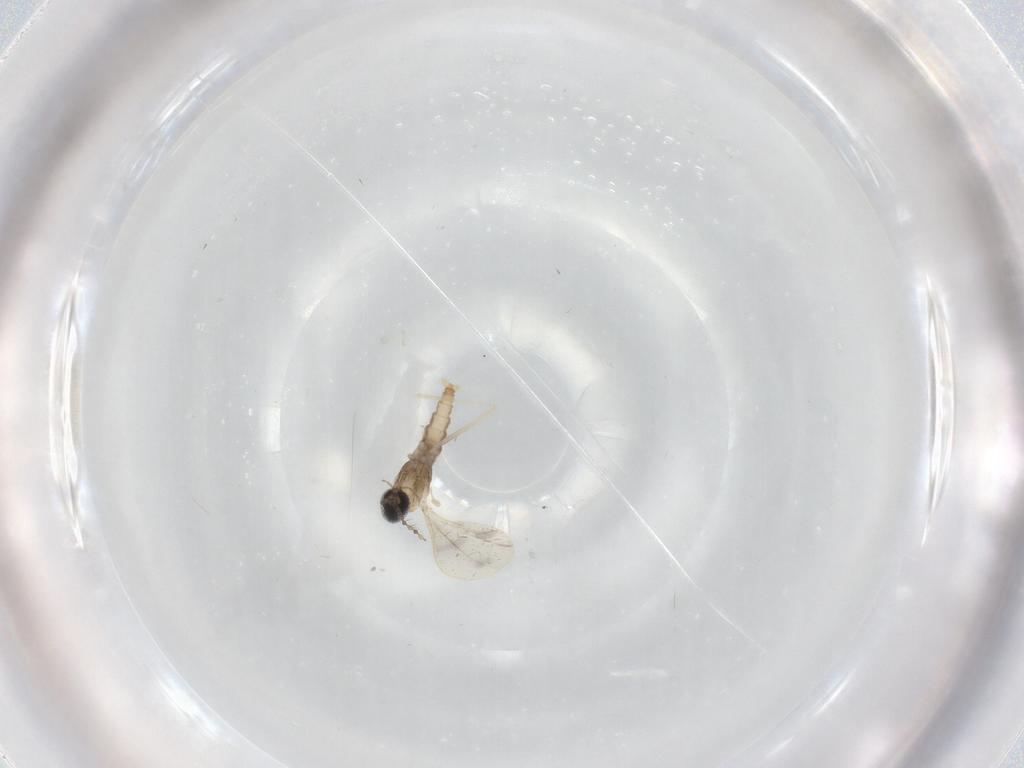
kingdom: Animalia
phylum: Arthropoda
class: Insecta
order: Diptera
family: Cecidomyiidae
